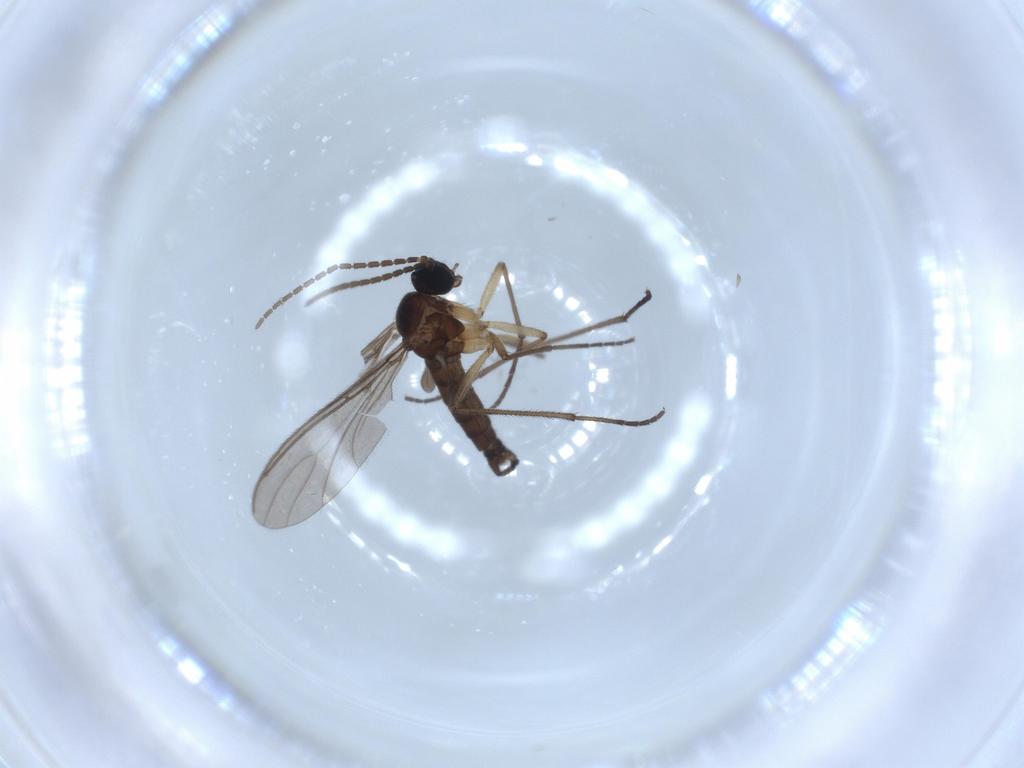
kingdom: Animalia
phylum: Arthropoda
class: Insecta
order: Diptera
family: Sciaridae
